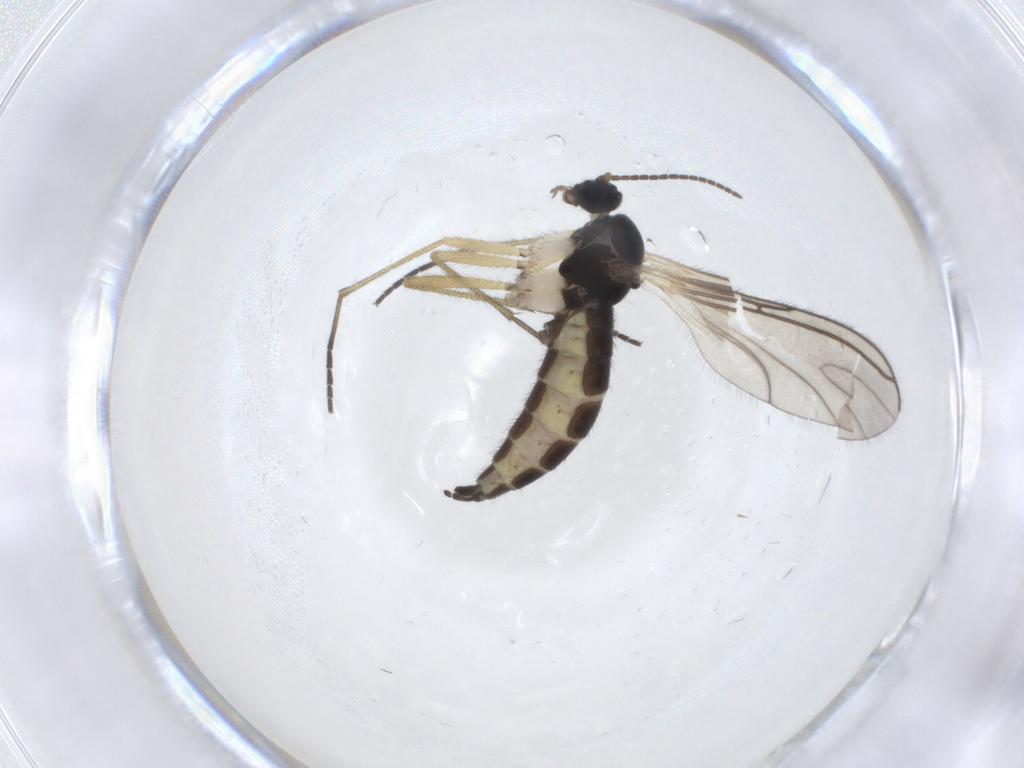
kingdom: Animalia
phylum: Arthropoda
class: Insecta
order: Diptera
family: Sciaridae
